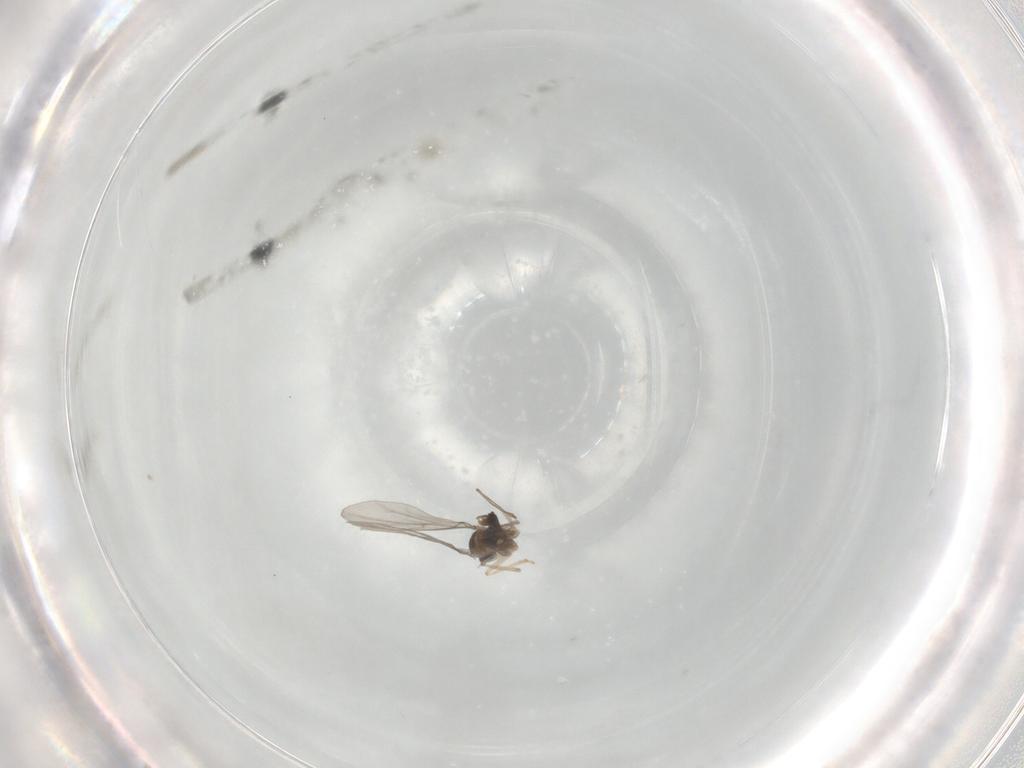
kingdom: Animalia
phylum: Arthropoda
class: Insecta
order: Diptera
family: Cecidomyiidae
